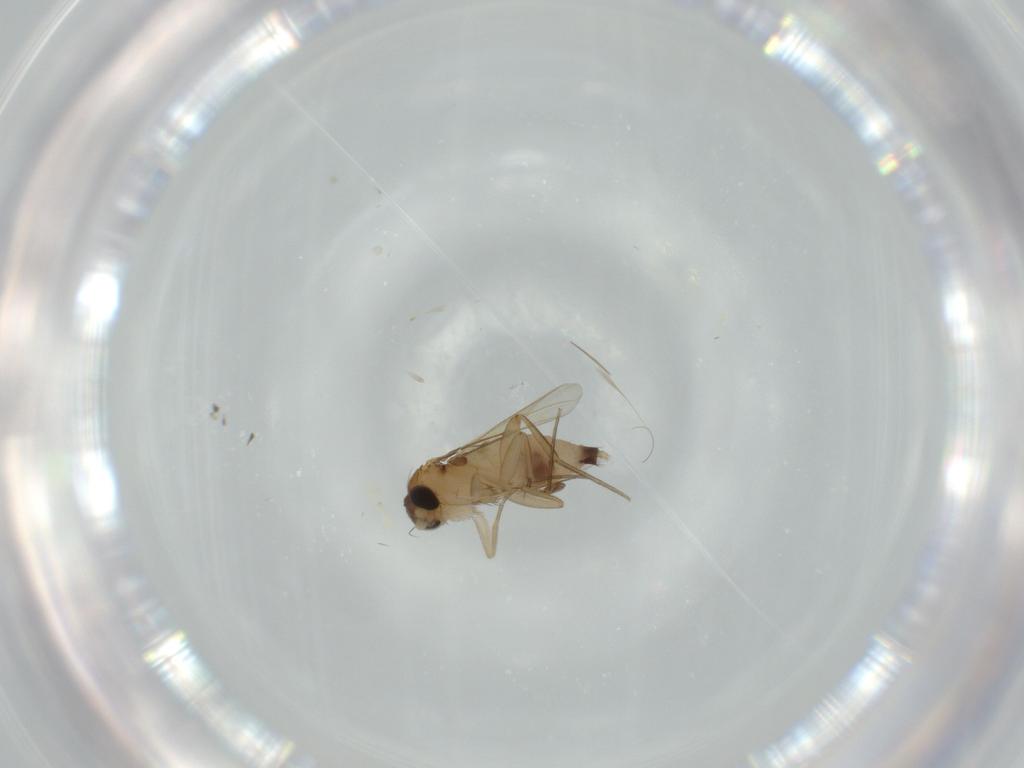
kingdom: Animalia
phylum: Arthropoda
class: Insecta
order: Diptera
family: Phoridae
